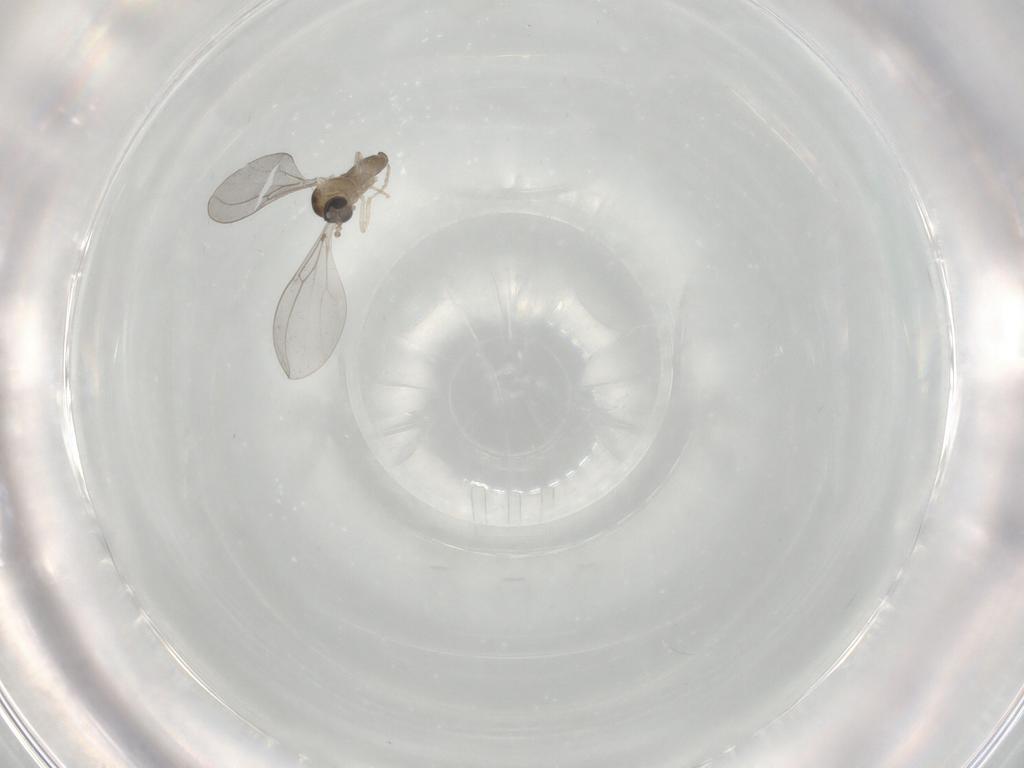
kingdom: Animalia
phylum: Arthropoda
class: Insecta
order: Diptera
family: Cecidomyiidae
